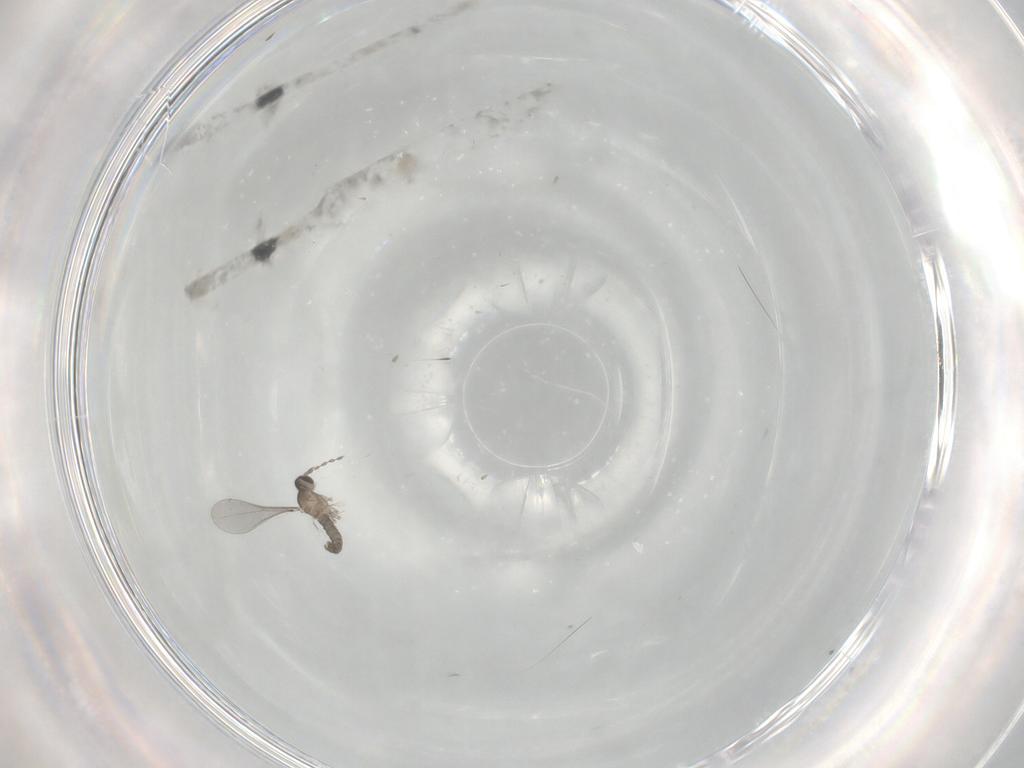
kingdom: Animalia
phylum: Arthropoda
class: Insecta
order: Diptera
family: Cecidomyiidae
